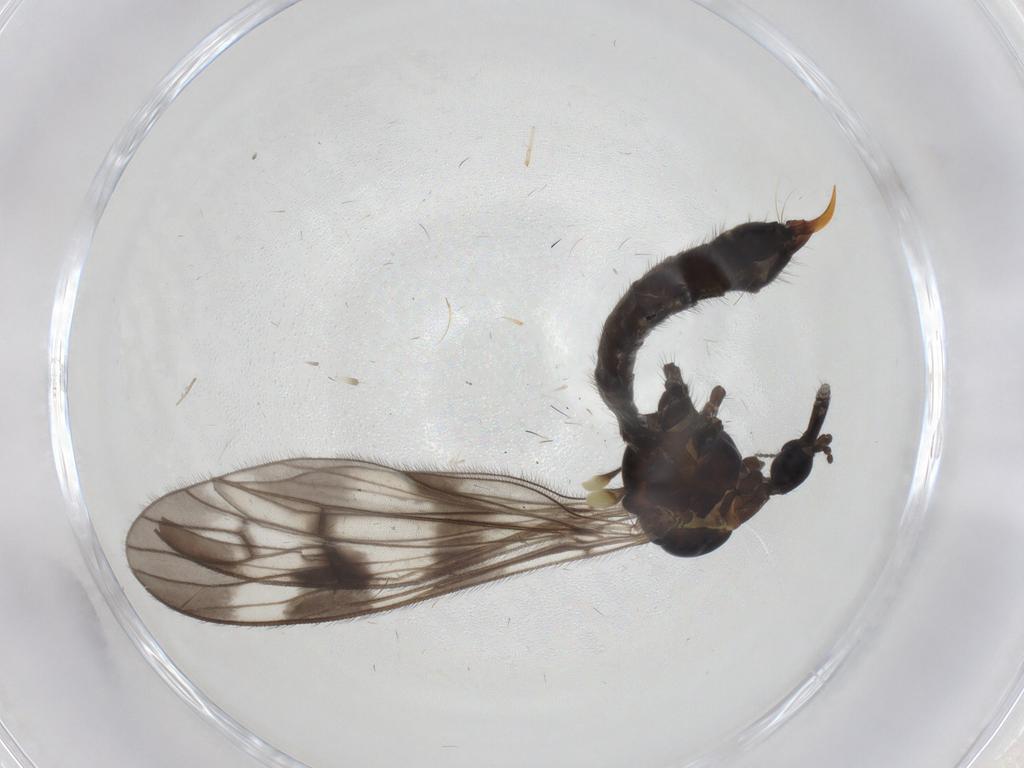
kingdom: Animalia
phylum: Arthropoda
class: Insecta
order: Diptera
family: Limoniidae
